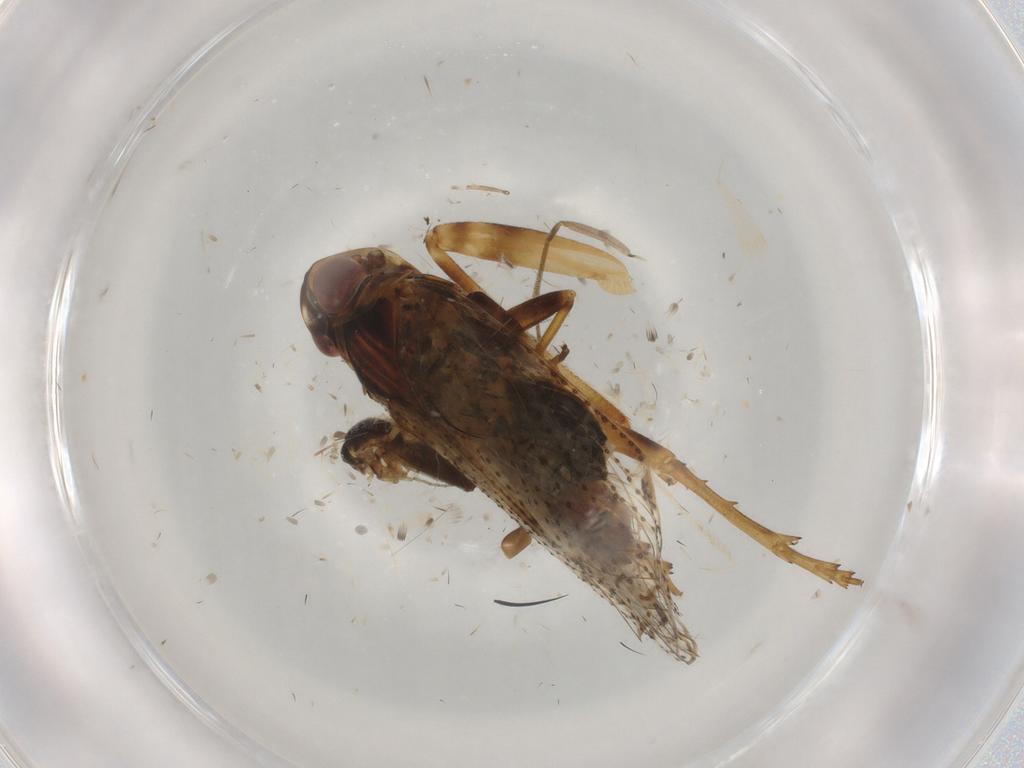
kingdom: Animalia
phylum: Arthropoda
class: Insecta
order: Hemiptera
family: Cixiidae
